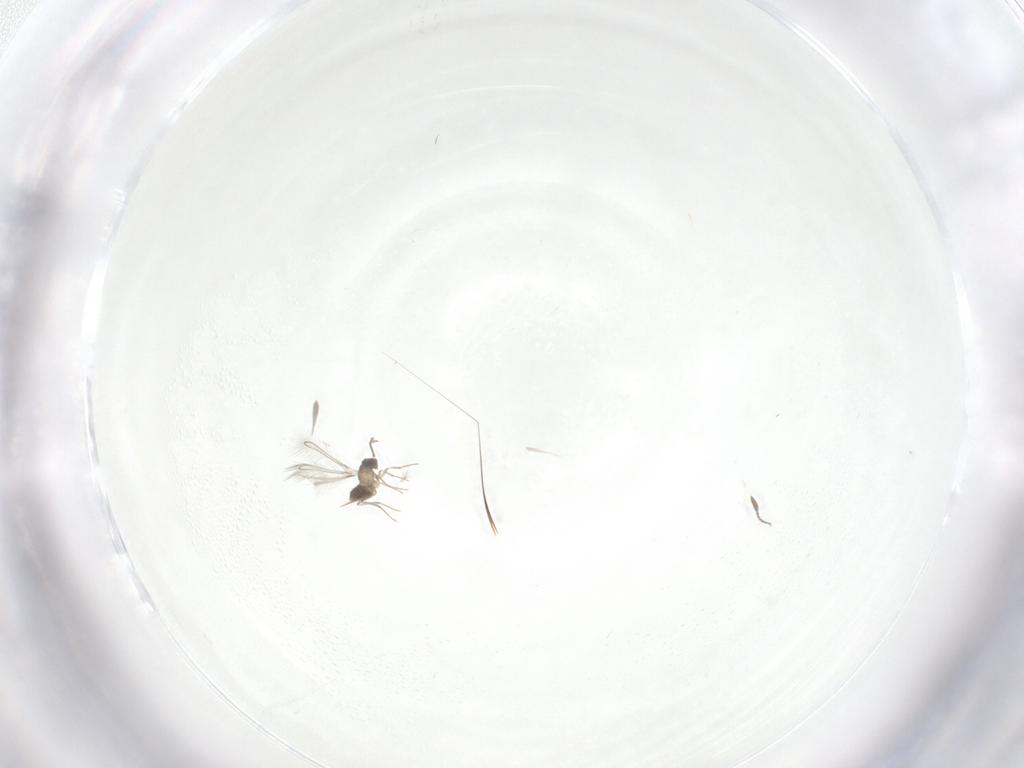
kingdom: Animalia
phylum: Arthropoda
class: Insecta
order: Hymenoptera
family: Mymaridae
